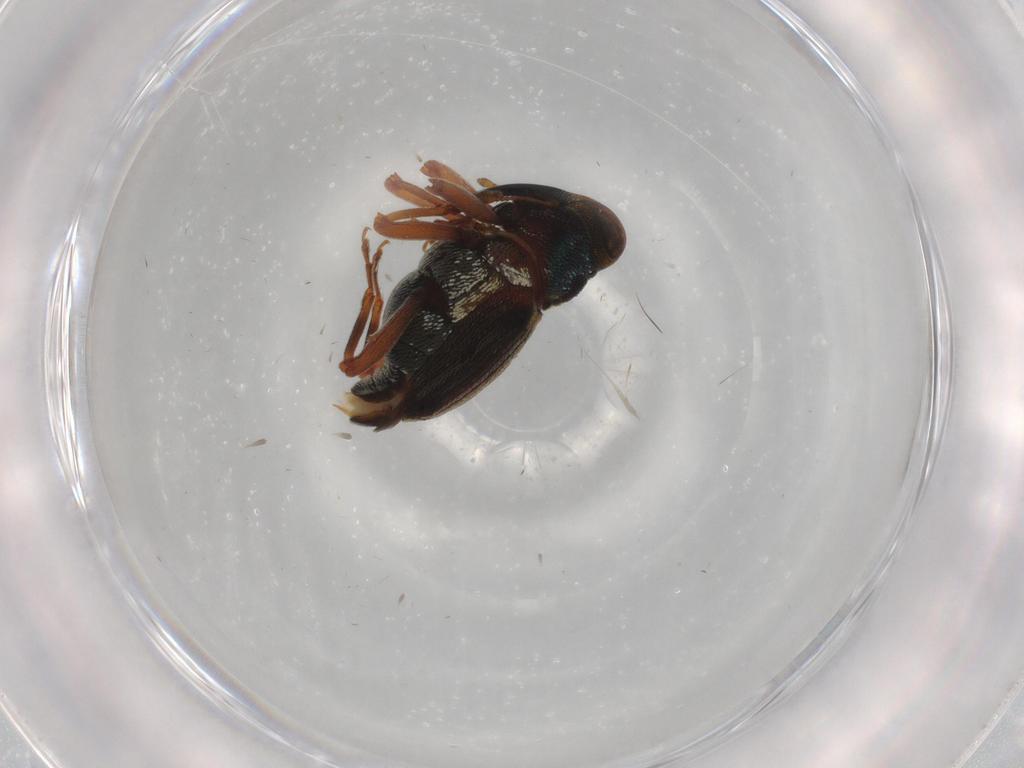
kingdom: Animalia
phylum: Arthropoda
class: Insecta
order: Coleoptera
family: Curculionidae
